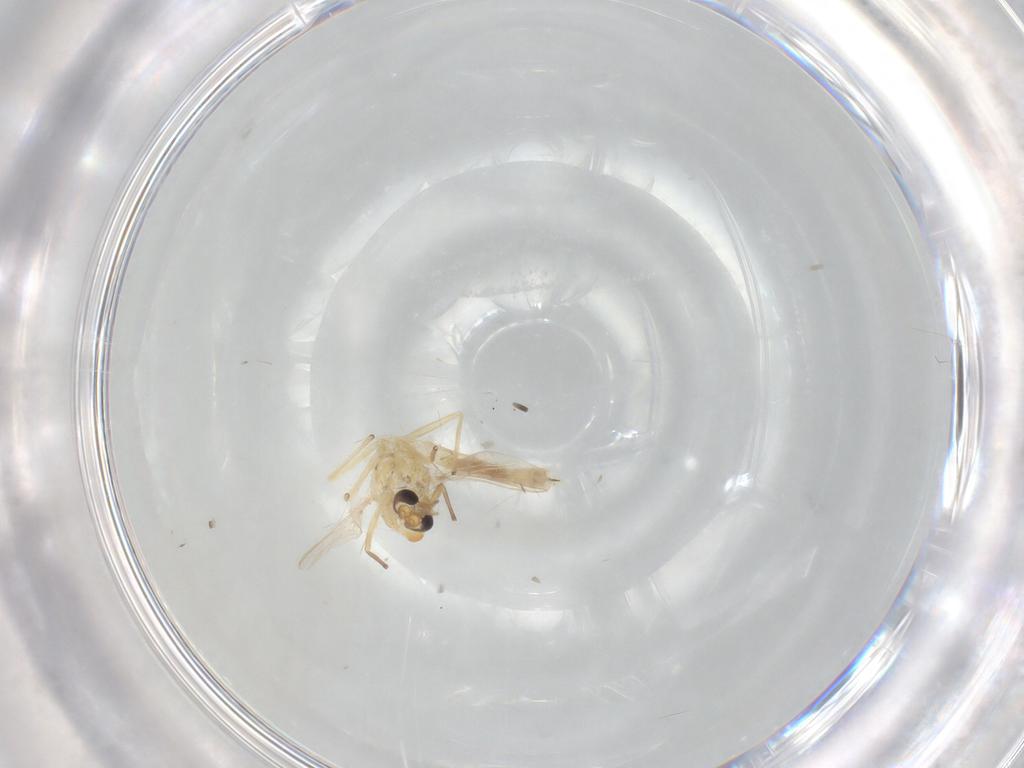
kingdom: Animalia
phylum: Arthropoda
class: Insecta
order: Diptera
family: Chironomidae
